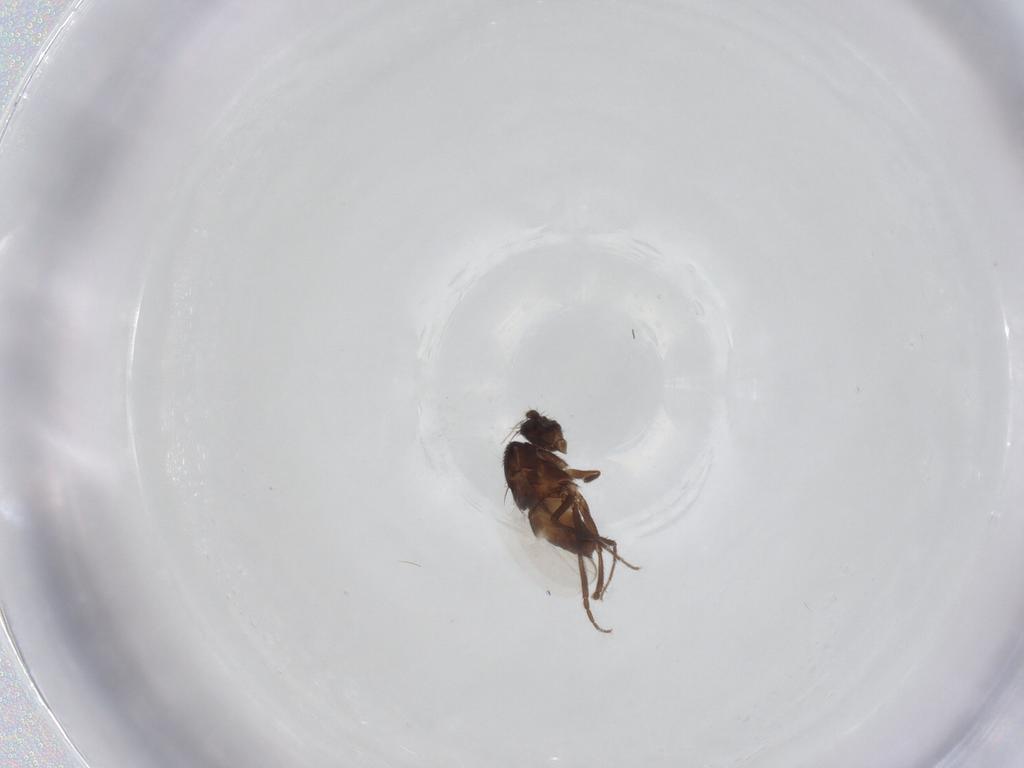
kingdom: Animalia
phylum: Arthropoda
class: Insecta
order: Diptera
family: Sphaeroceridae
